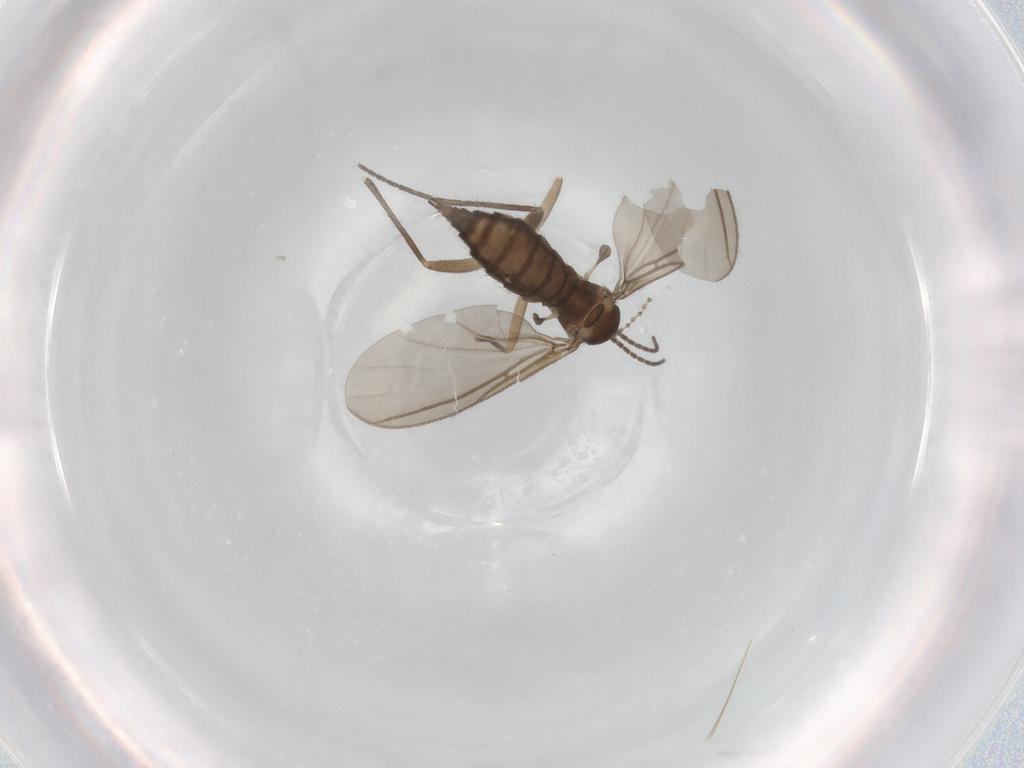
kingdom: Animalia
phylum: Arthropoda
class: Insecta
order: Diptera
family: Sciaridae
